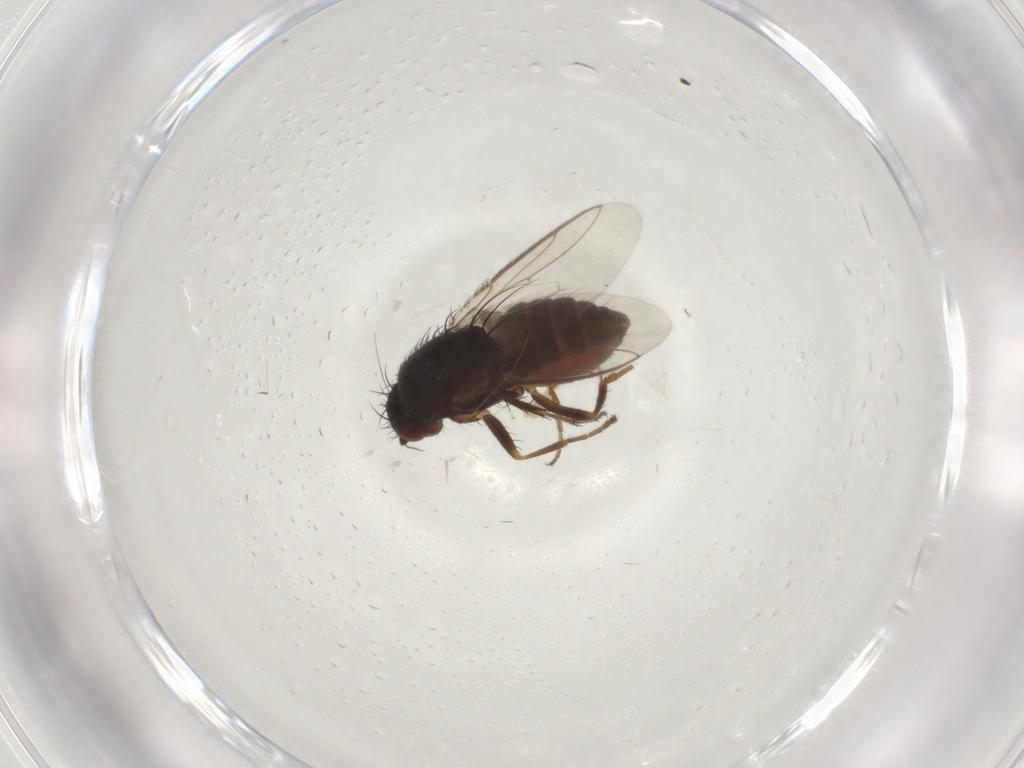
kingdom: Animalia
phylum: Arthropoda
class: Insecta
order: Diptera
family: Sphaeroceridae
